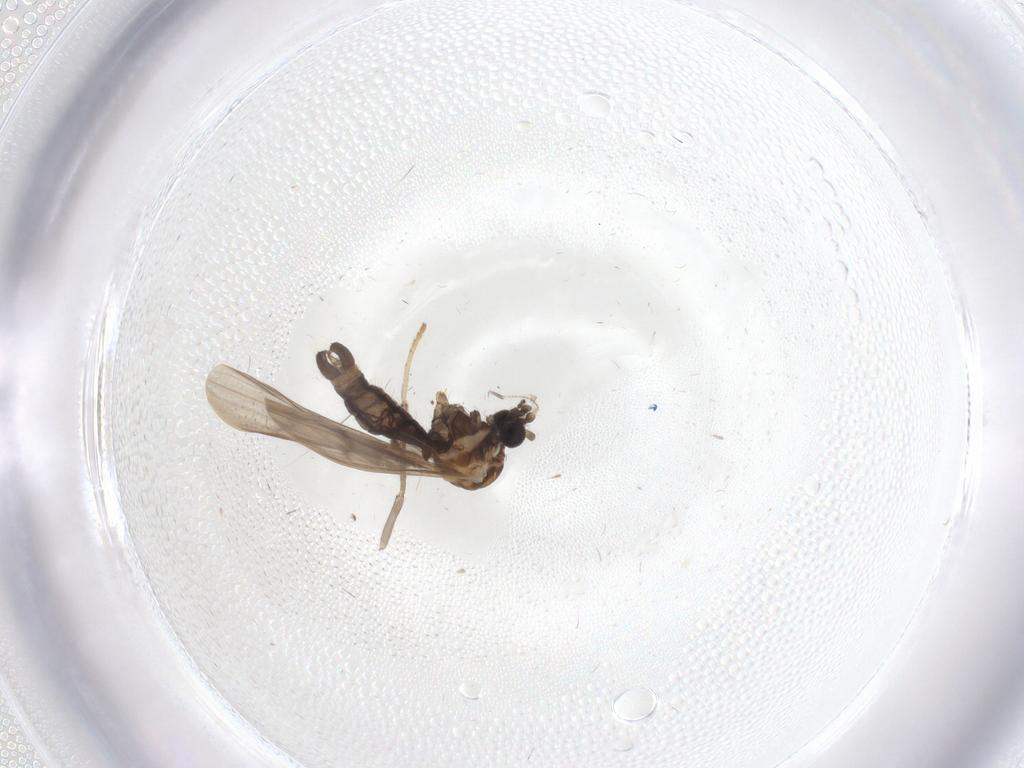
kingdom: Animalia
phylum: Arthropoda
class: Insecta
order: Diptera
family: Limoniidae
